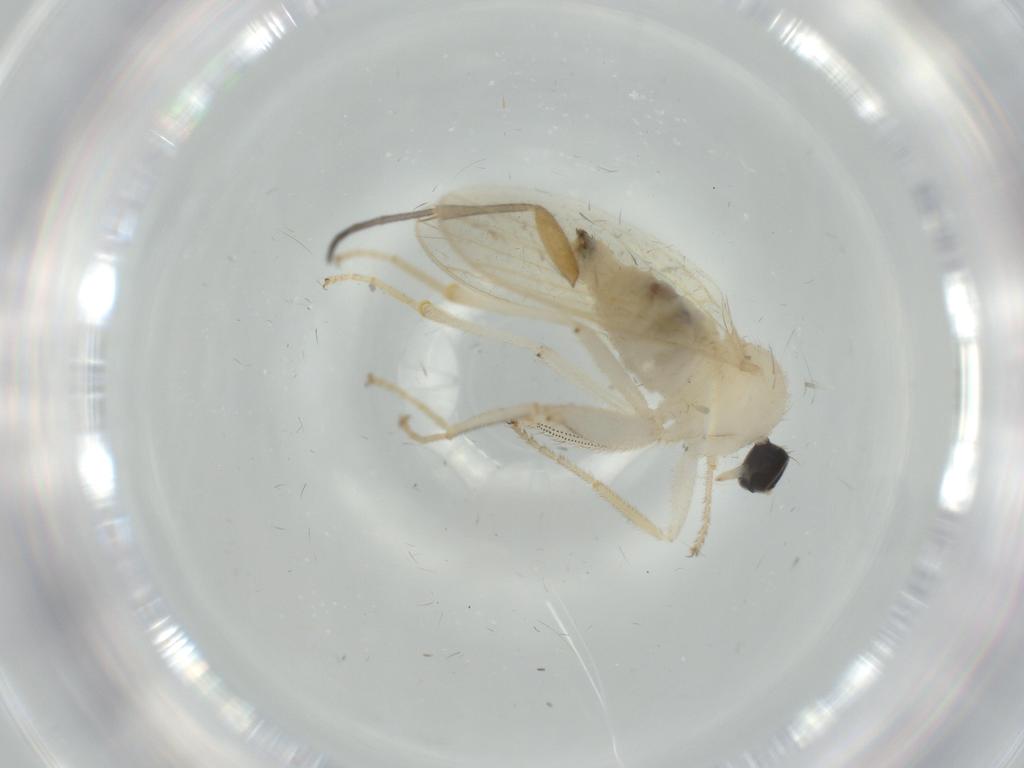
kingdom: Animalia
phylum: Arthropoda
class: Insecta
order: Diptera
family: Hybotidae
